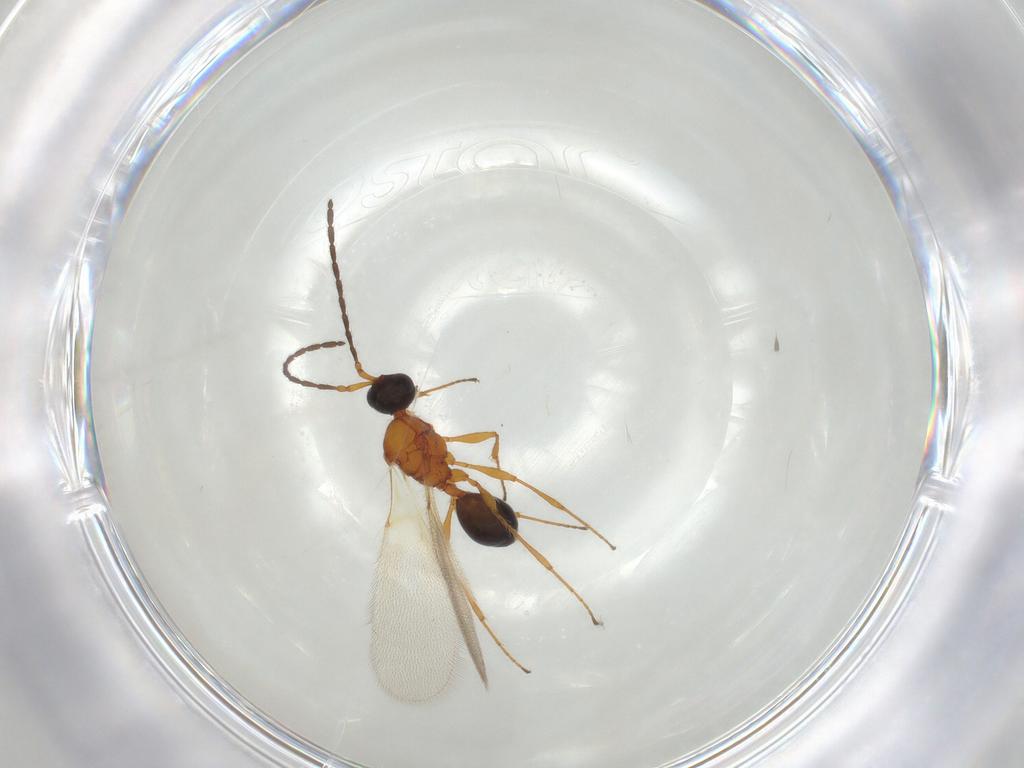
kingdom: Animalia
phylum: Arthropoda
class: Insecta
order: Hymenoptera
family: Diapriidae
